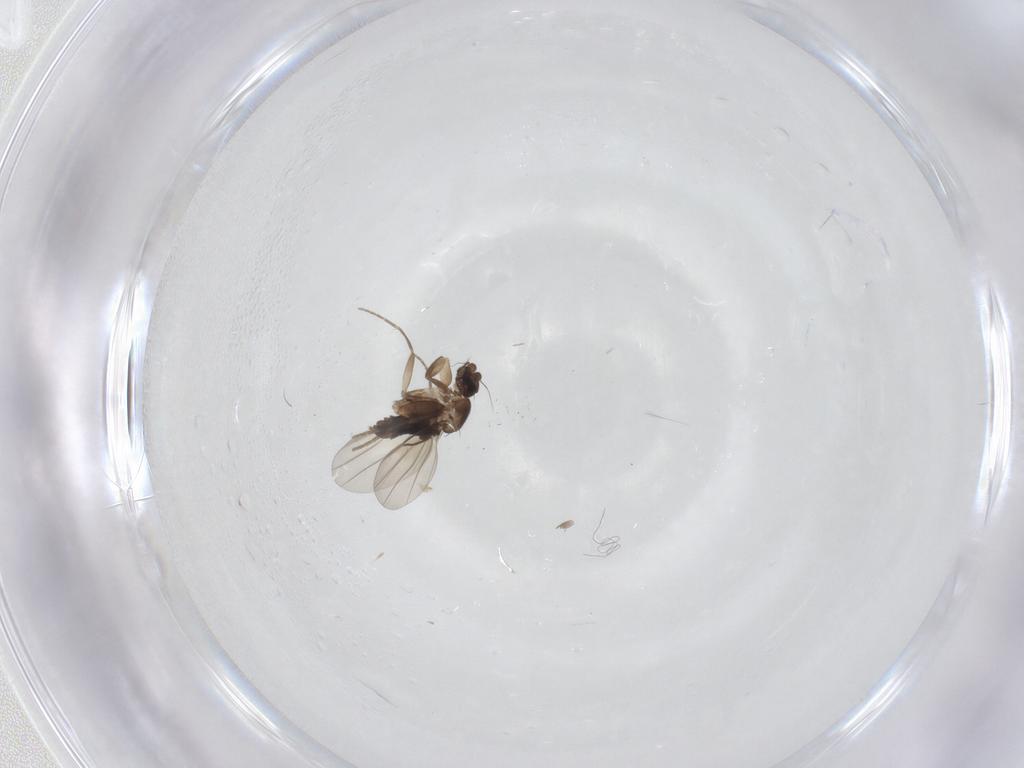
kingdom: Animalia
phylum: Arthropoda
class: Insecta
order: Diptera
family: Phoridae
